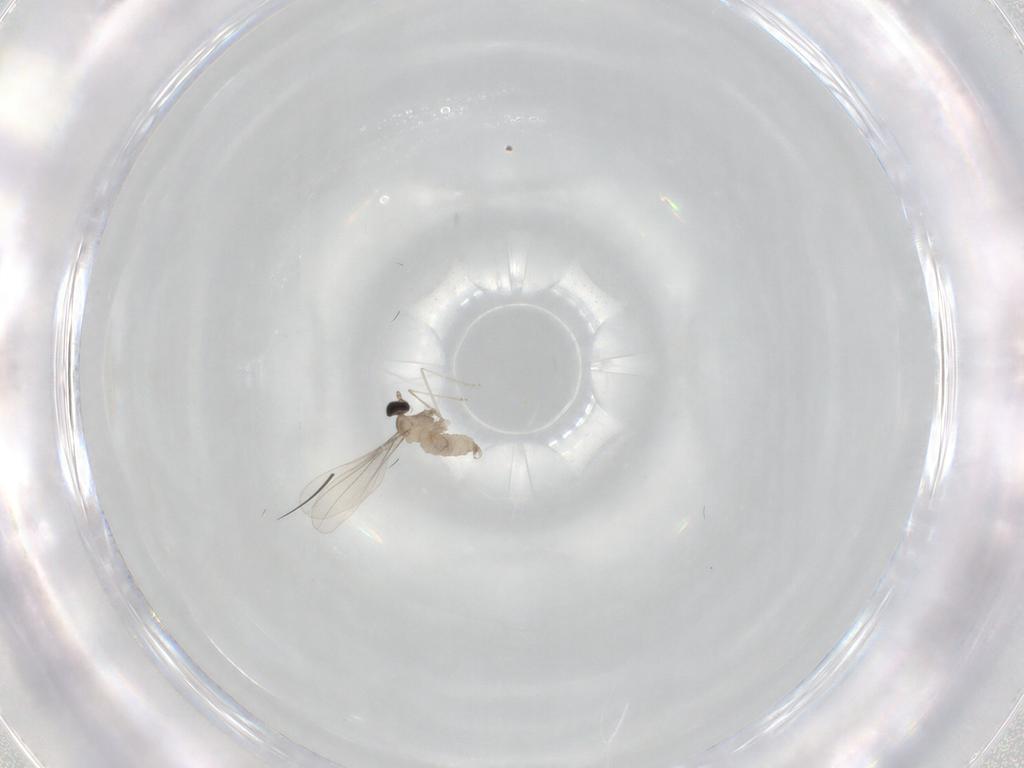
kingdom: Animalia
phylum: Arthropoda
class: Insecta
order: Diptera
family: Cecidomyiidae
